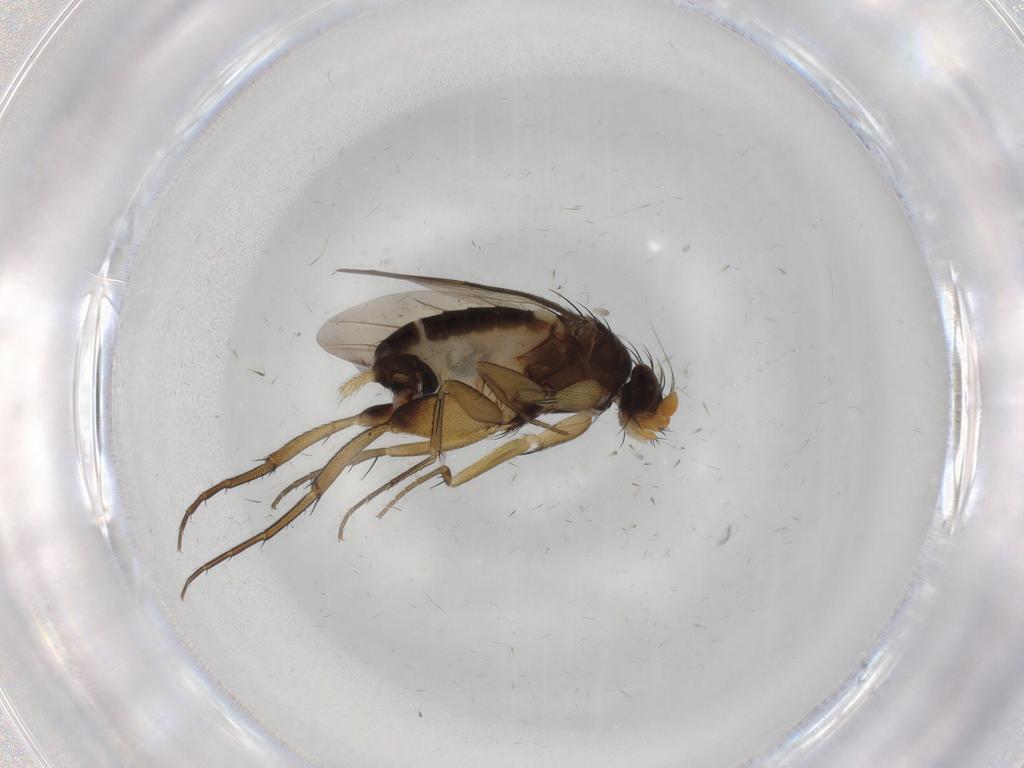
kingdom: Animalia
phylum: Arthropoda
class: Insecta
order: Diptera
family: Phoridae
